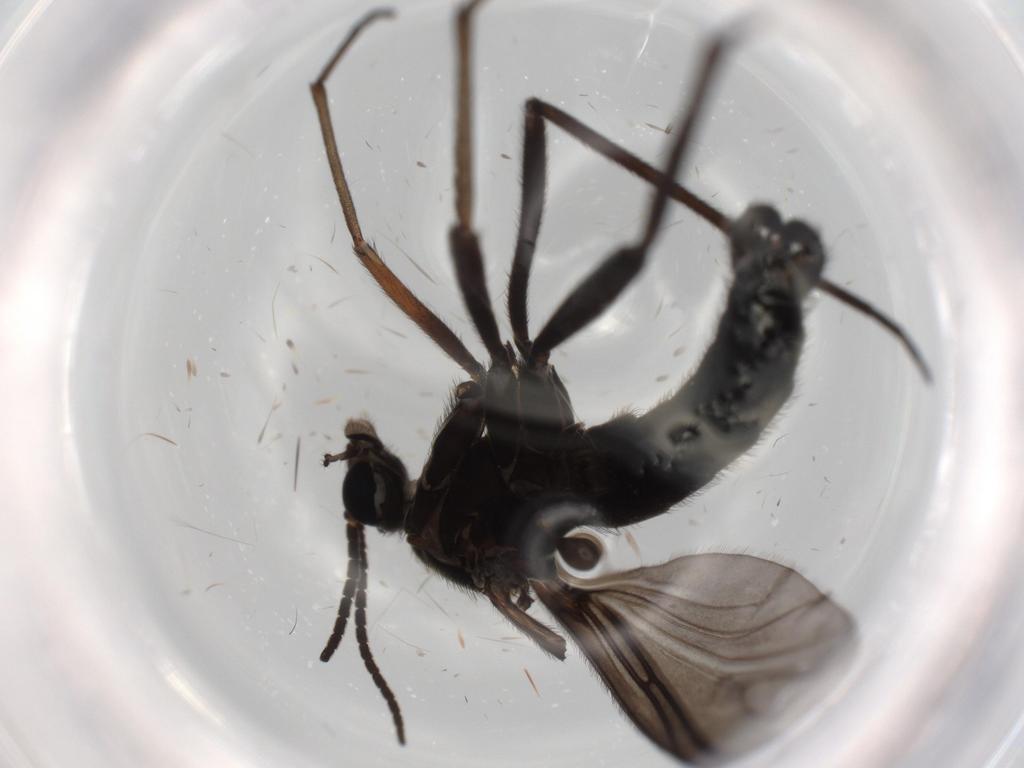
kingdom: Animalia
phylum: Arthropoda
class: Insecta
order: Diptera
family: Sciaridae
